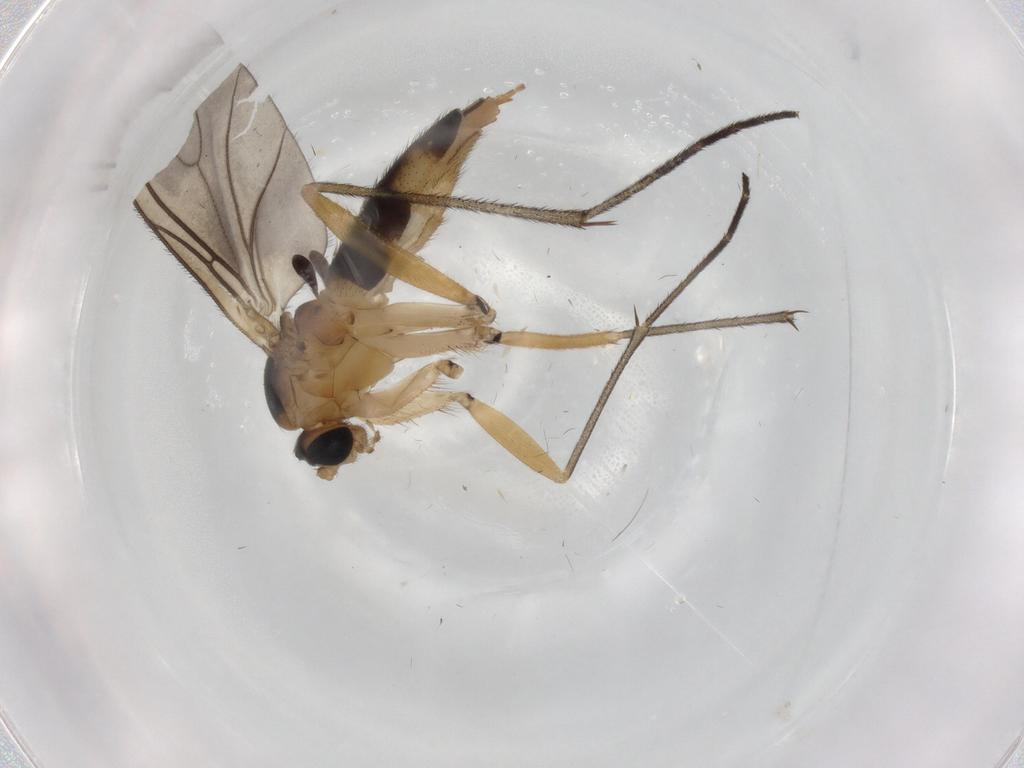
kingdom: Animalia
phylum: Arthropoda
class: Insecta
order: Diptera
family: Sciaridae
